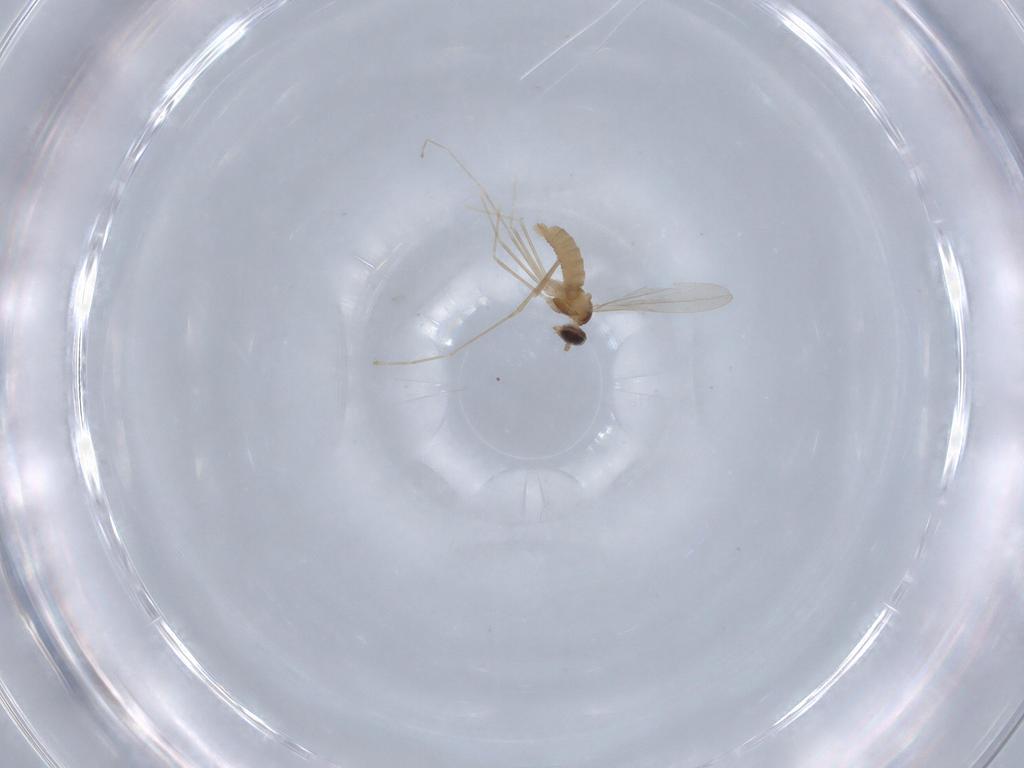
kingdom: Animalia
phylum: Arthropoda
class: Insecta
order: Diptera
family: Cecidomyiidae
